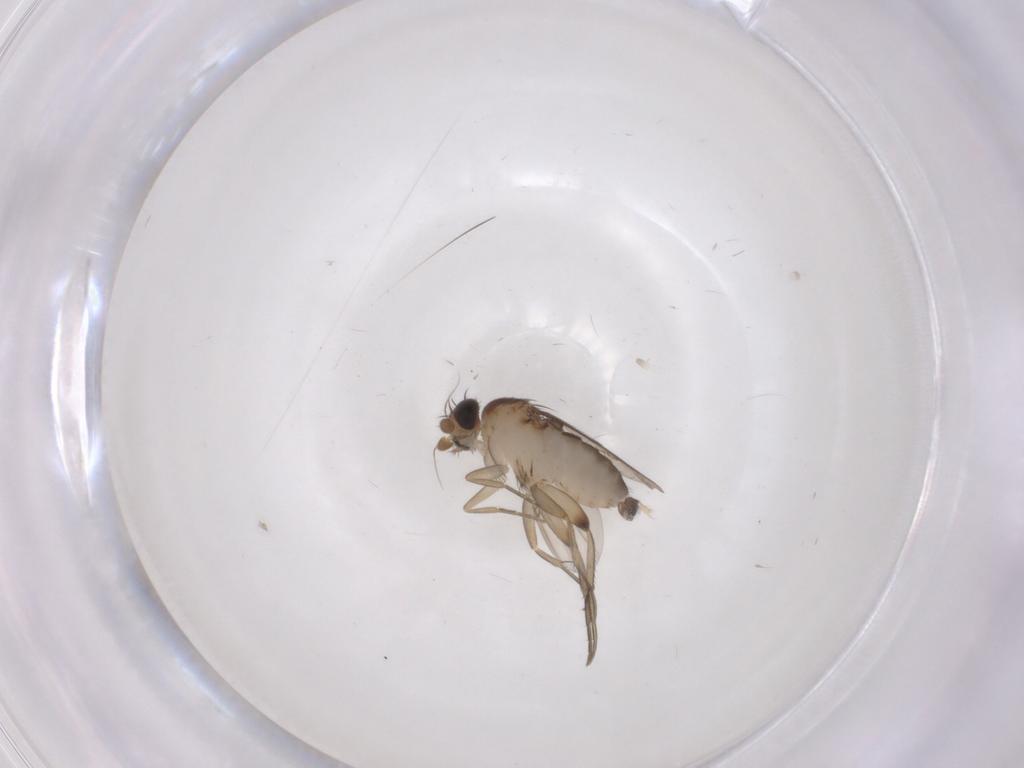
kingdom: Animalia
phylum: Arthropoda
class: Insecta
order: Diptera
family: Phoridae
